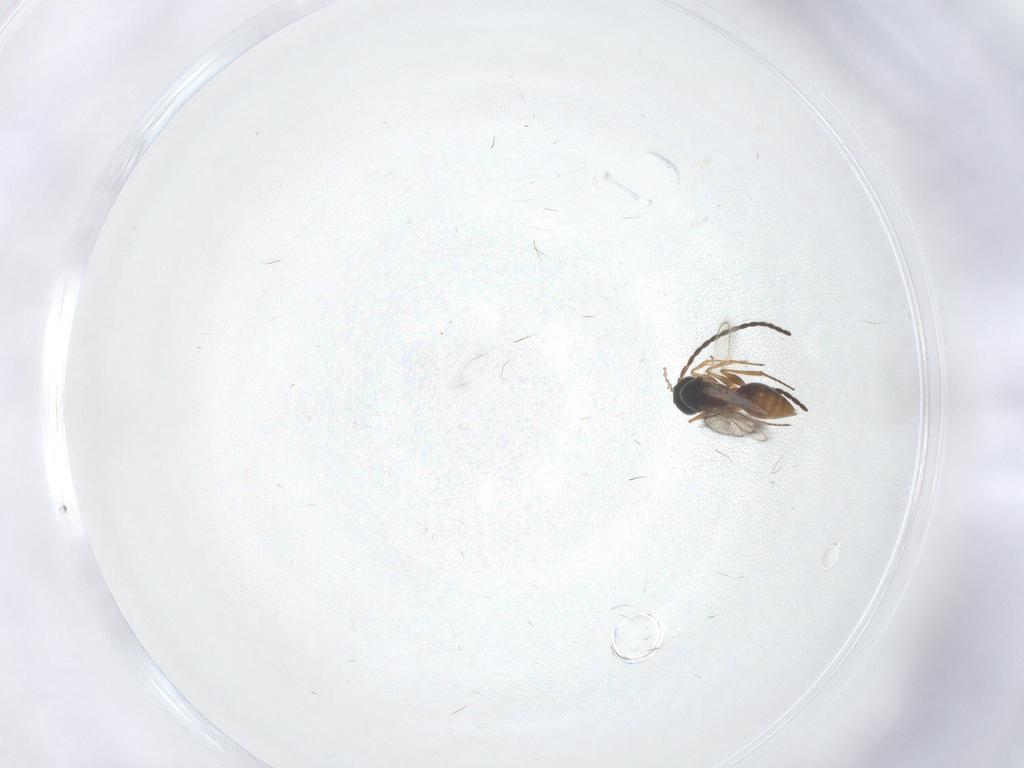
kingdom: Animalia
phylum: Arthropoda
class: Insecta
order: Hymenoptera
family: Figitidae
